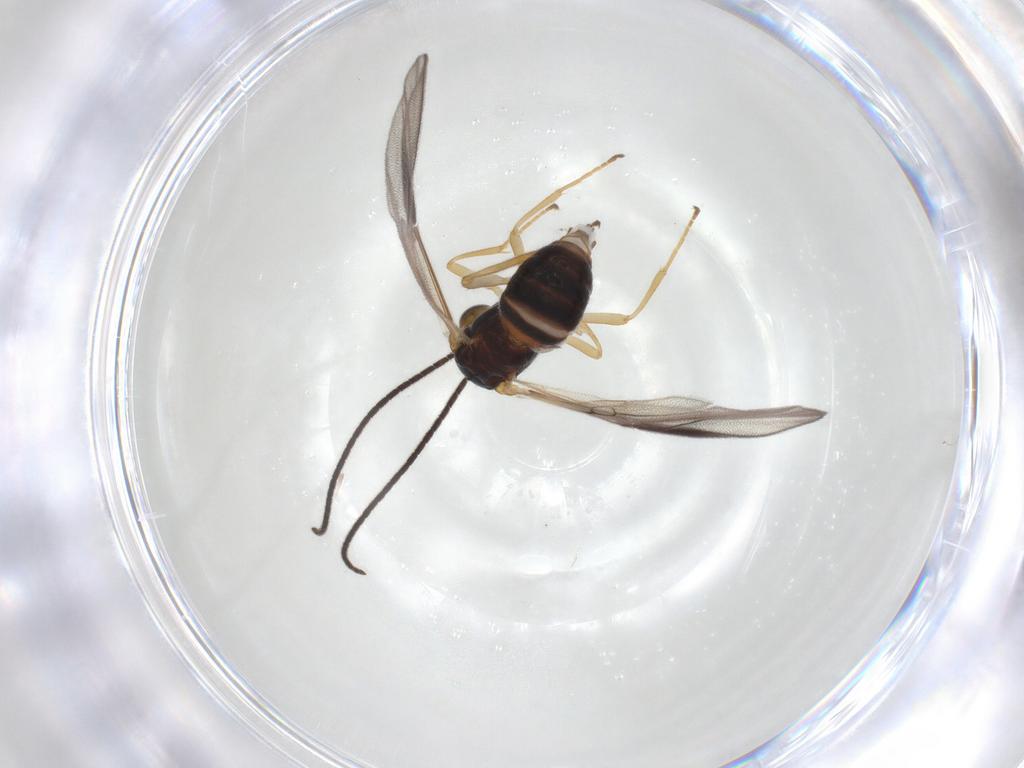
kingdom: Animalia
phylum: Arthropoda
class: Insecta
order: Hymenoptera
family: Braconidae
